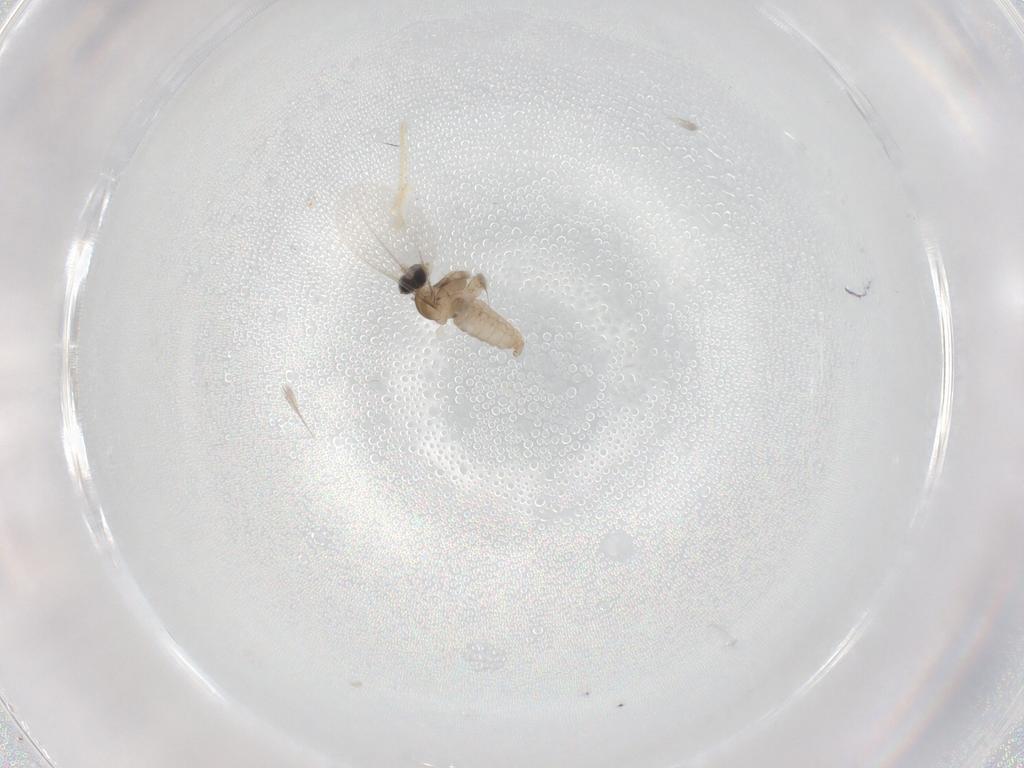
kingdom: Animalia
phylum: Arthropoda
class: Insecta
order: Diptera
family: Cecidomyiidae
